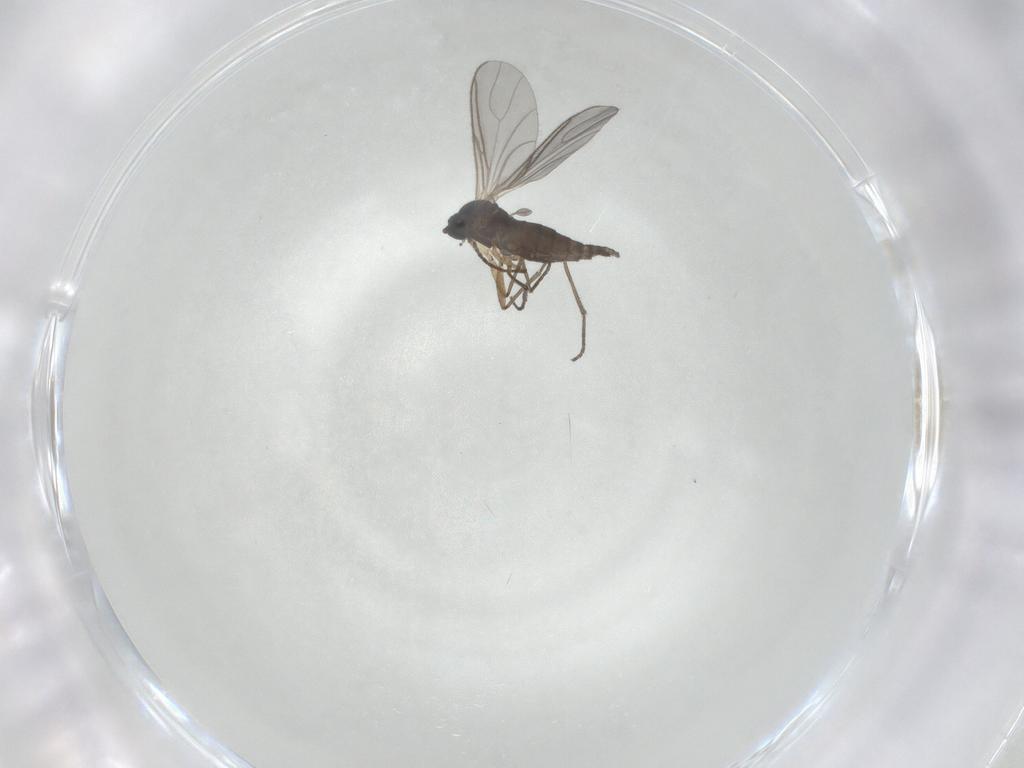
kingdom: Animalia
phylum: Arthropoda
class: Insecta
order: Diptera
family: Sciaridae
